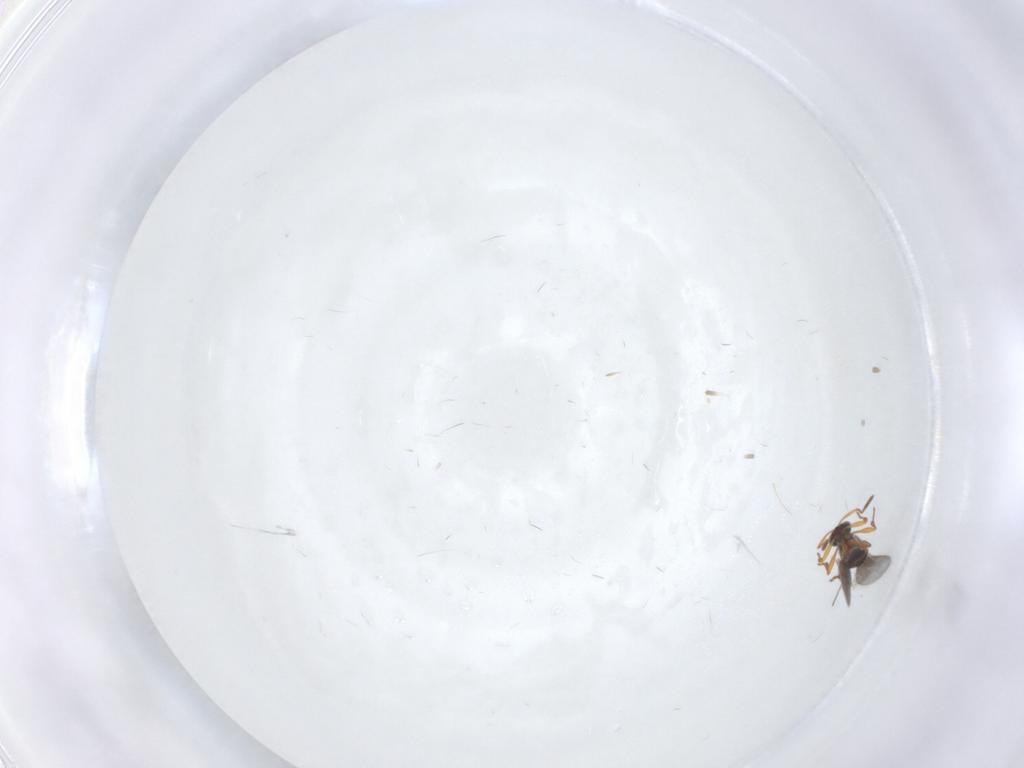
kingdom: Animalia
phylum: Arthropoda
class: Insecta
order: Hymenoptera
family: Platygastridae
